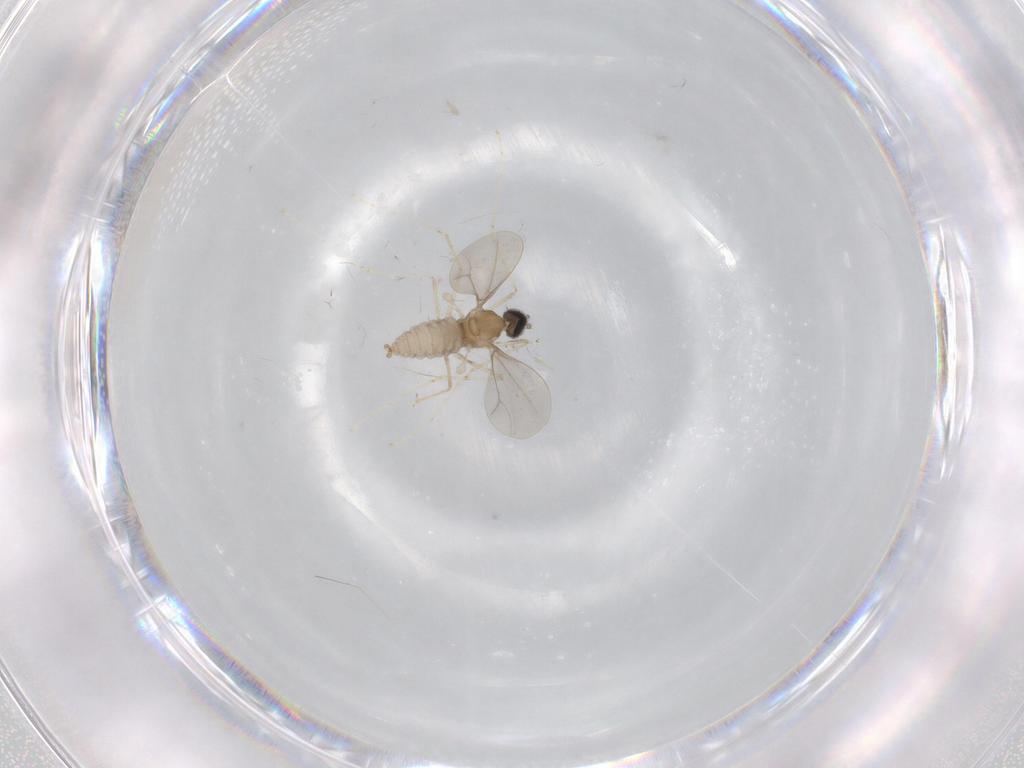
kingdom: Animalia
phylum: Arthropoda
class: Insecta
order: Diptera
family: Cecidomyiidae
